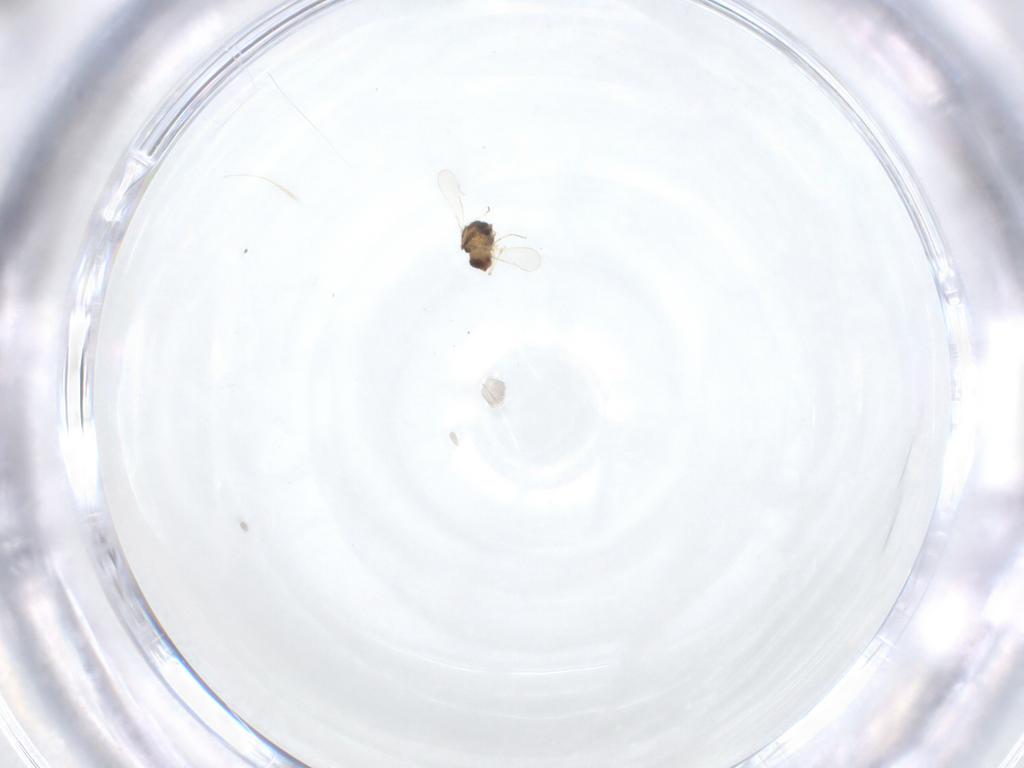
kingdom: Animalia
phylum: Arthropoda
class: Insecta
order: Diptera
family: Chironomidae
